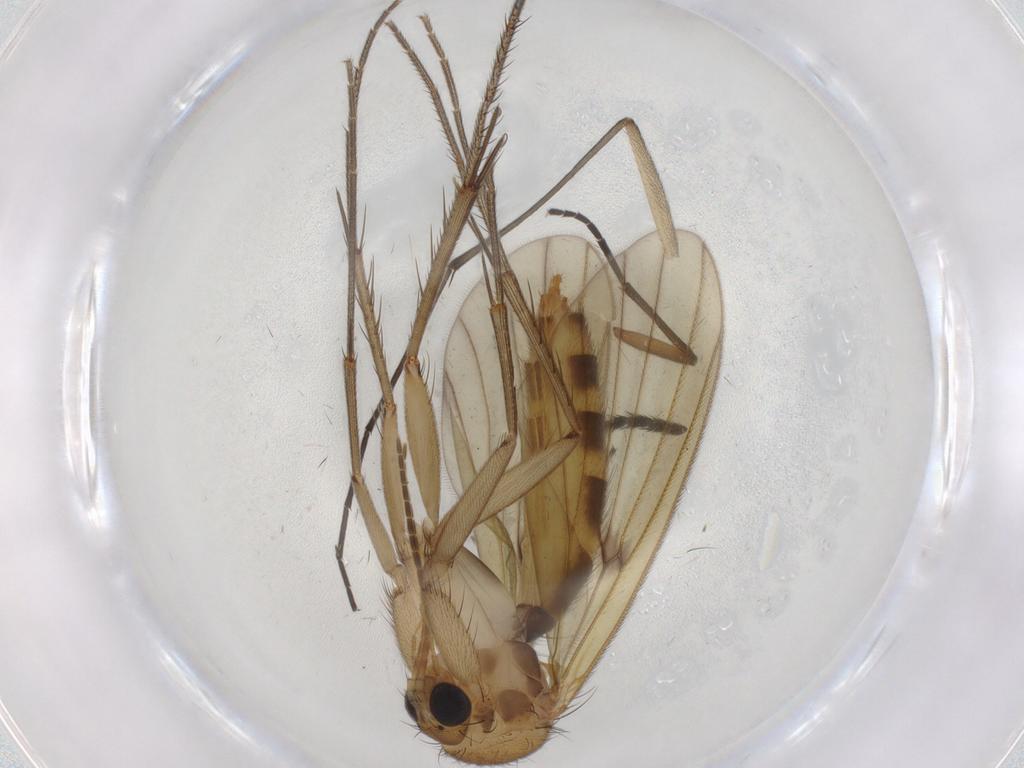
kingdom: Animalia
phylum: Arthropoda
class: Insecta
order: Diptera
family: Mycetophilidae
